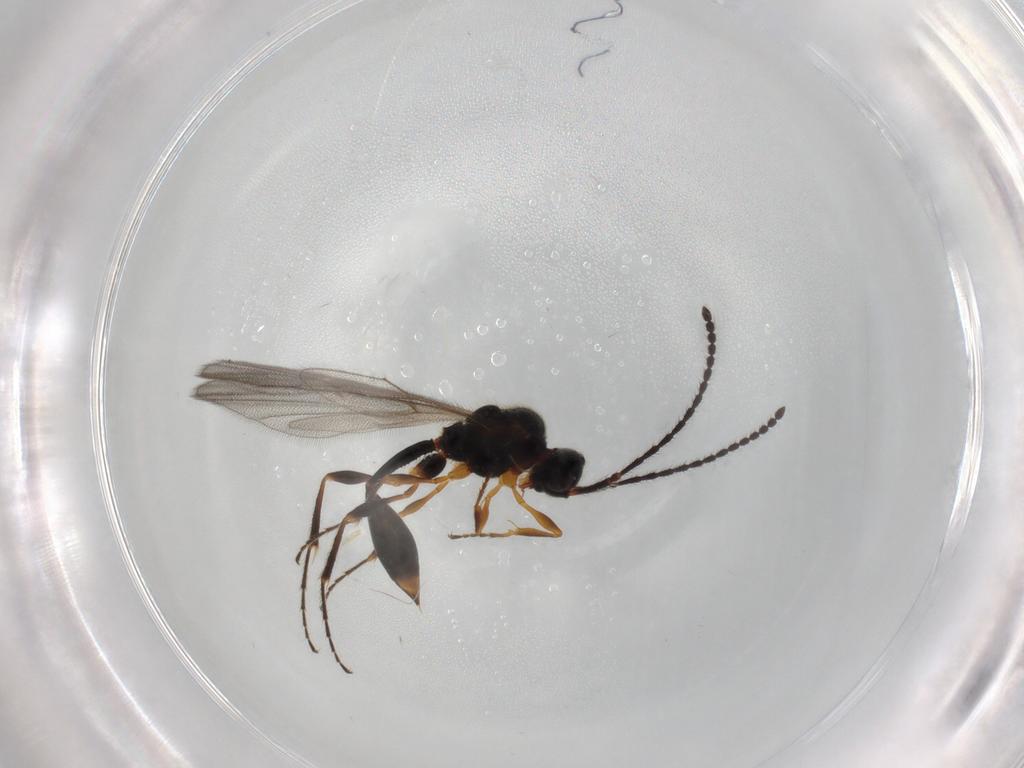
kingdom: Animalia
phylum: Arthropoda
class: Insecta
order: Hymenoptera
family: Diapriidae
